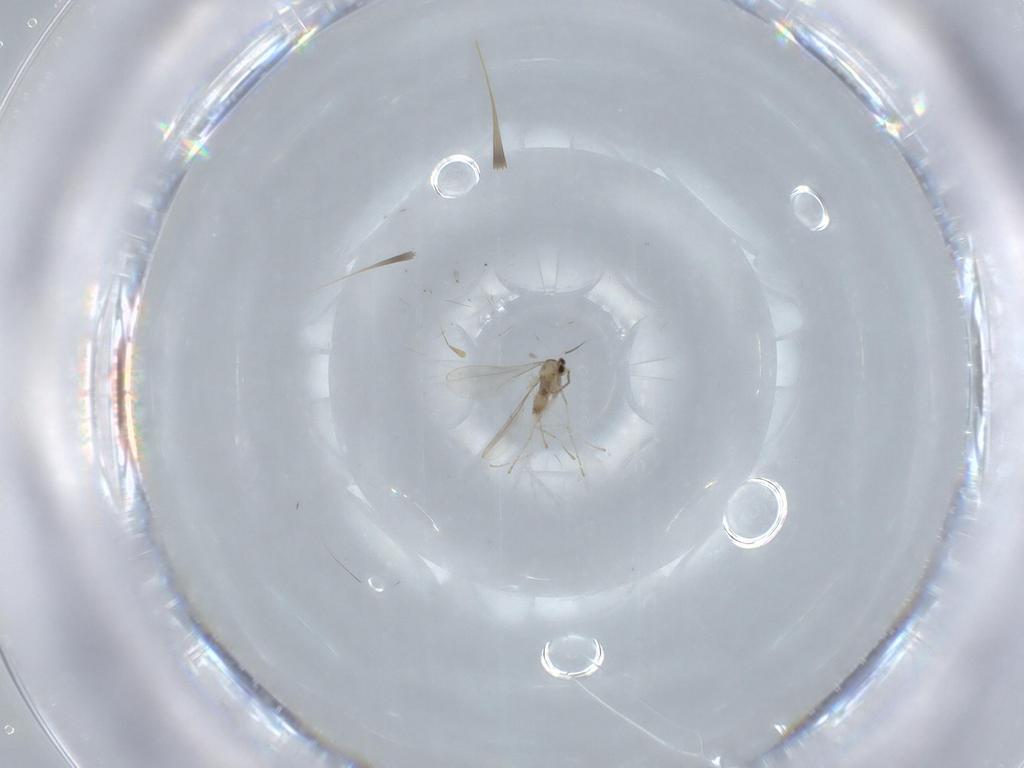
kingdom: Animalia
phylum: Arthropoda
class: Insecta
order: Diptera
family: Cecidomyiidae
